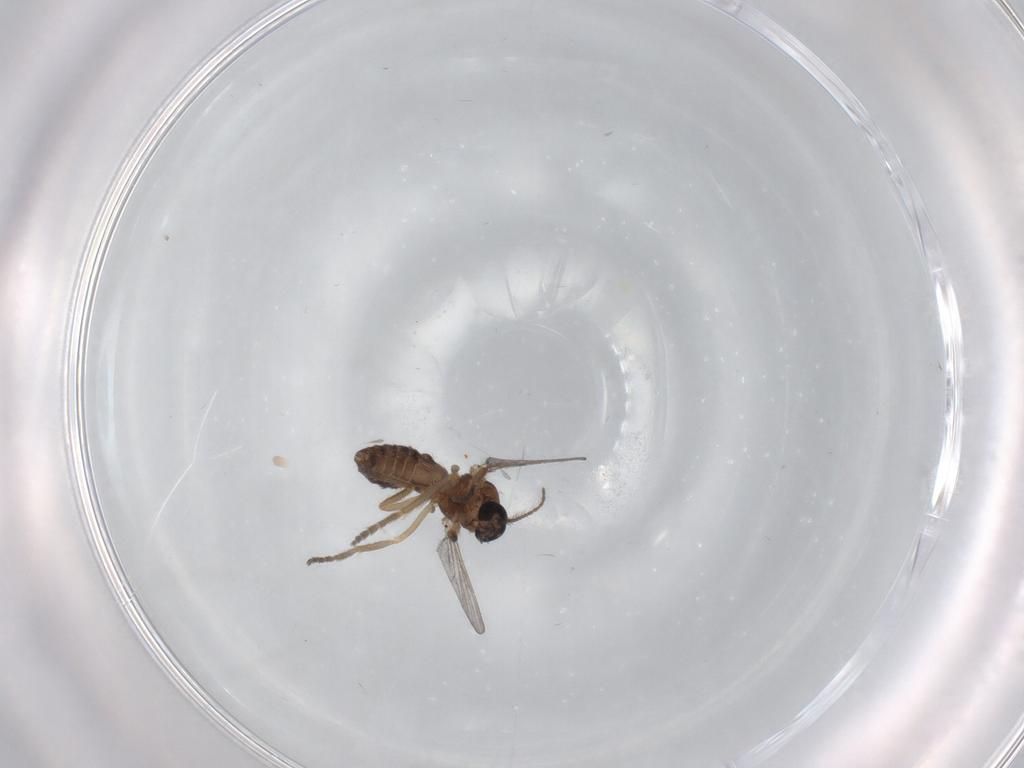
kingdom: Animalia
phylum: Arthropoda
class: Insecta
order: Diptera
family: Ceratopogonidae
